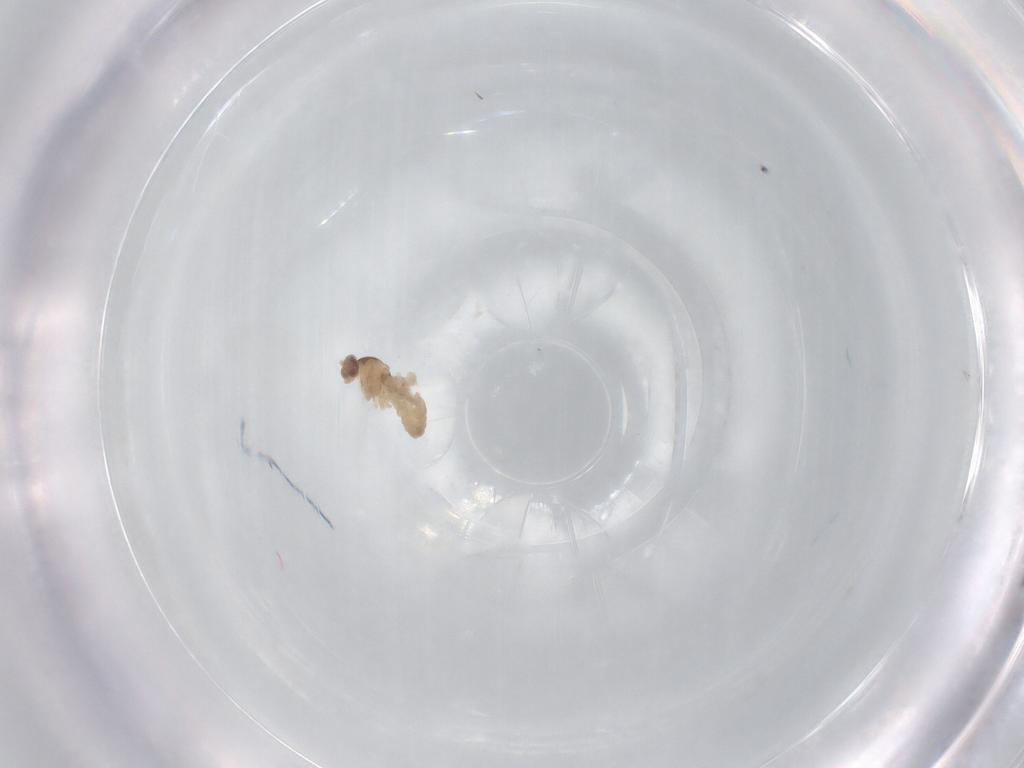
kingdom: Animalia
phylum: Arthropoda
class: Insecta
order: Diptera
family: Cecidomyiidae
